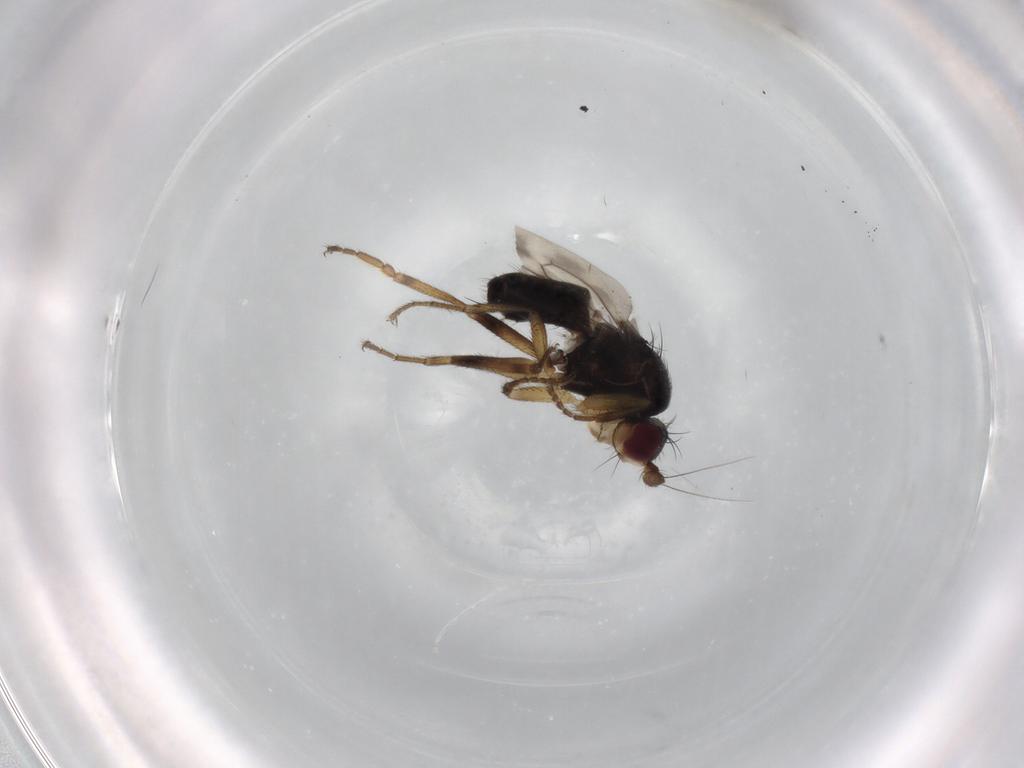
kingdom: Animalia
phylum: Arthropoda
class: Insecta
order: Diptera
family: Sphaeroceridae
